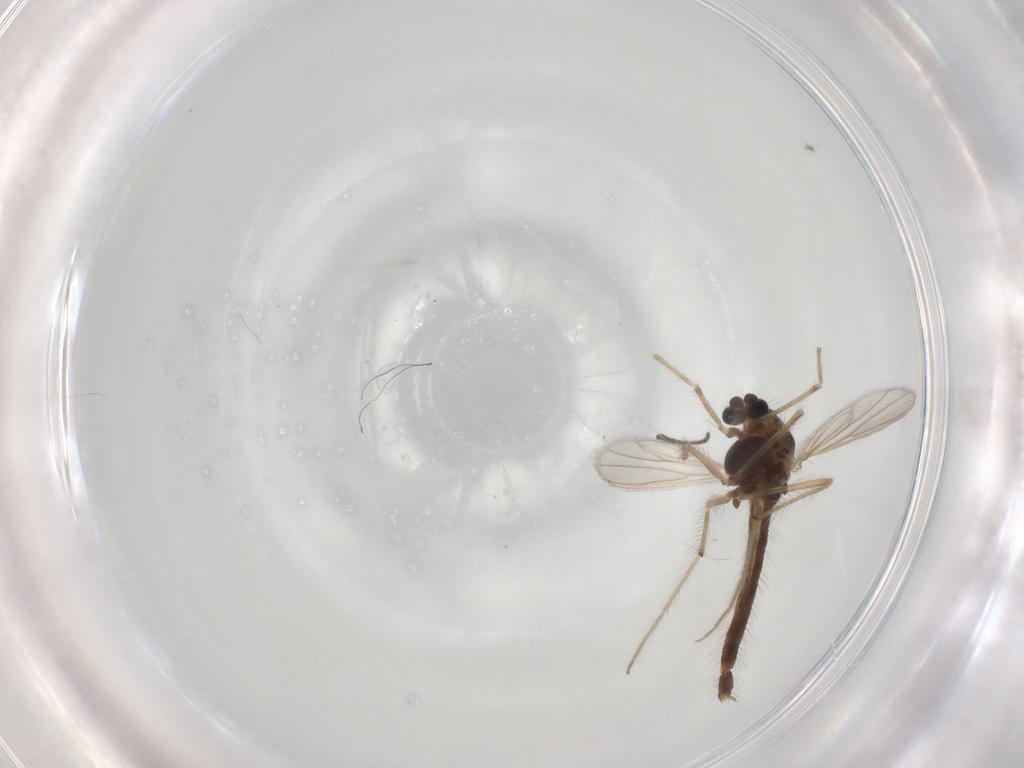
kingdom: Animalia
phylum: Arthropoda
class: Insecta
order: Diptera
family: Chironomidae
